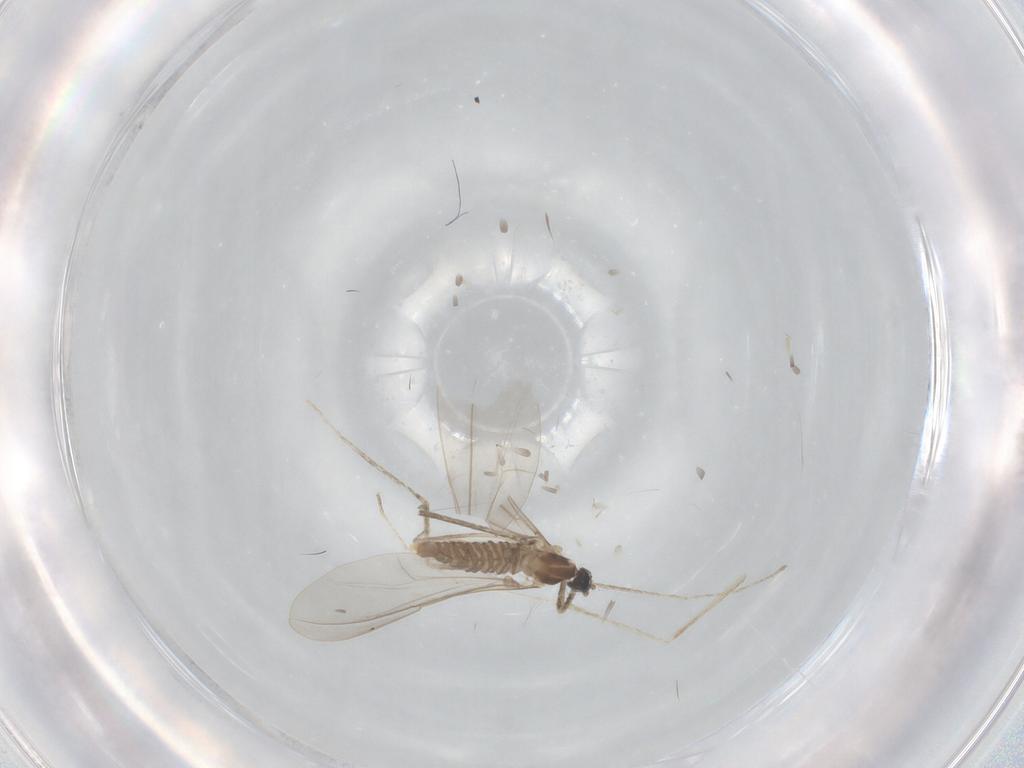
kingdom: Animalia
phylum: Arthropoda
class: Insecta
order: Diptera
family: Cecidomyiidae
